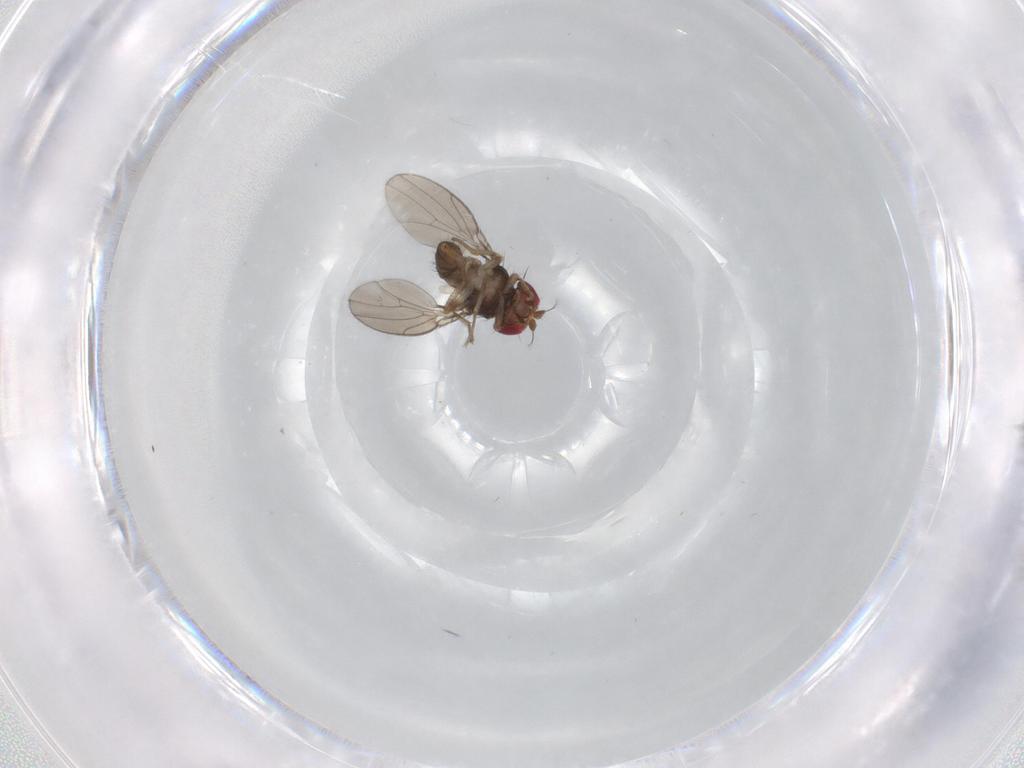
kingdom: Animalia
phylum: Arthropoda
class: Insecta
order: Diptera
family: Drosophilidae
